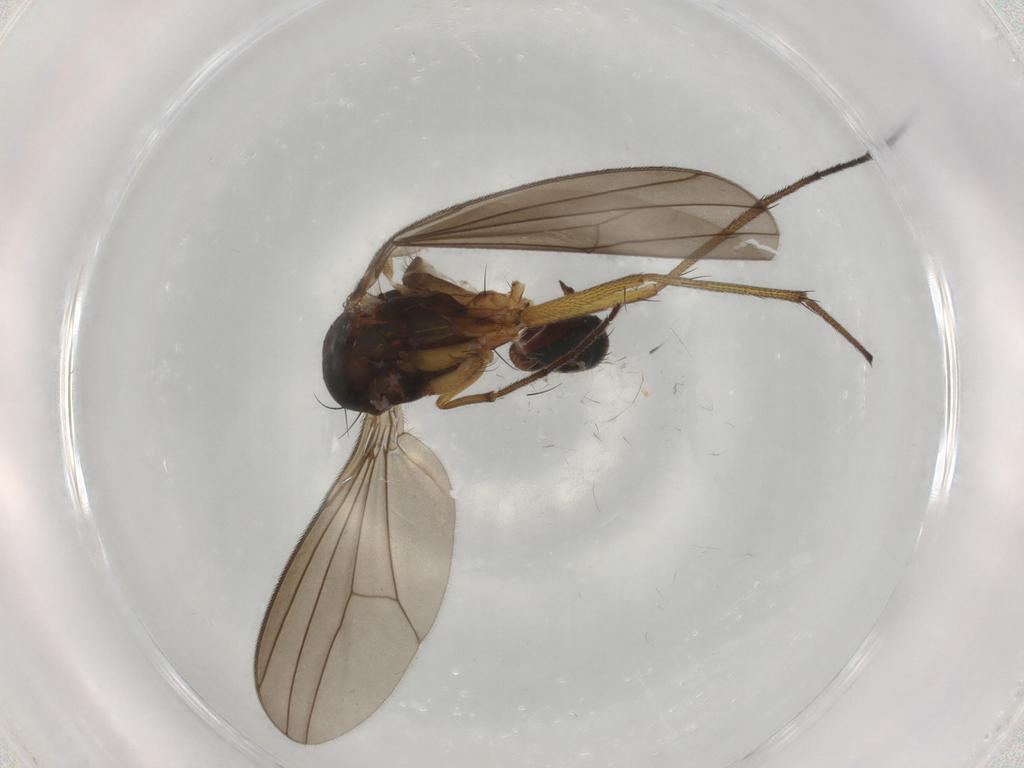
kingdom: Animalia
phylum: Arthropoda
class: Insecta
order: Diptera
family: Dolichopodidae
